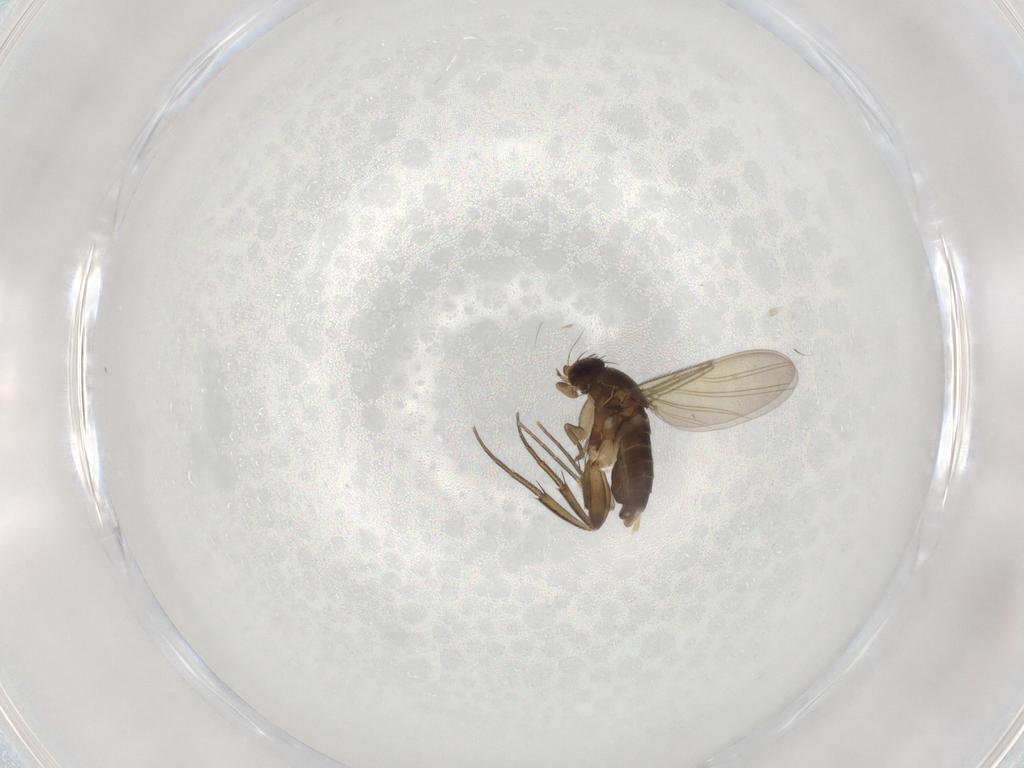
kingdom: Animalia
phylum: Arthropoda
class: Insecta
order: Diptera
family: Phoridae
